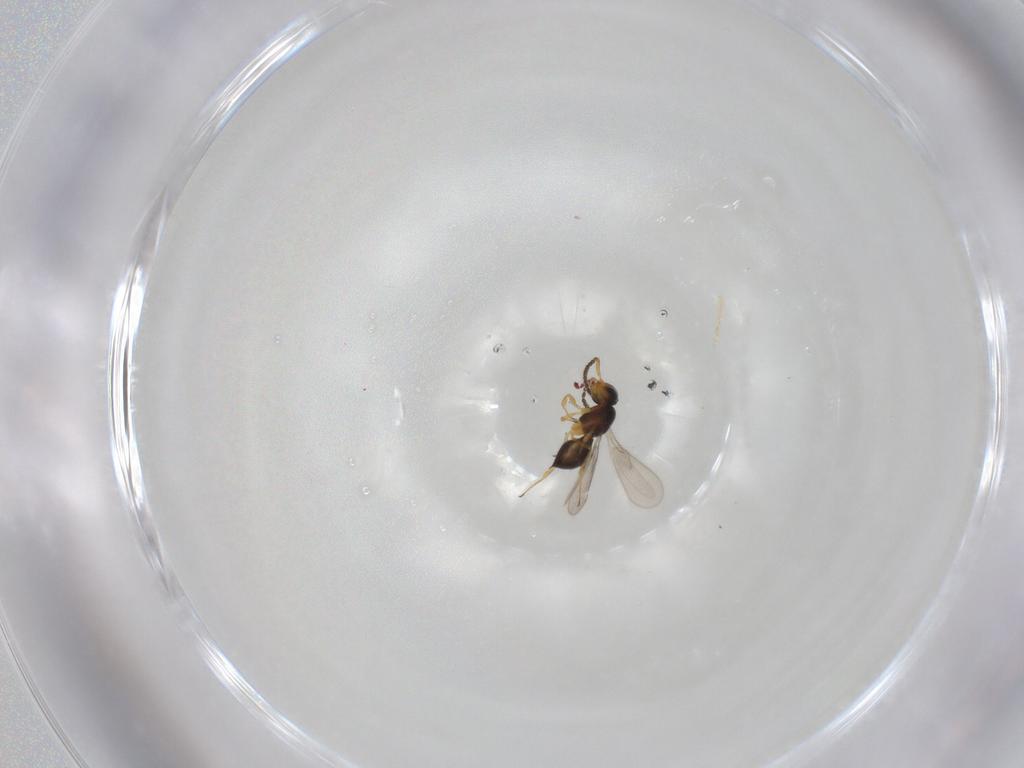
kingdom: Animalia
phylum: Arthropoda
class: Insecta
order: Hymenoptera
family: Scelionidae
